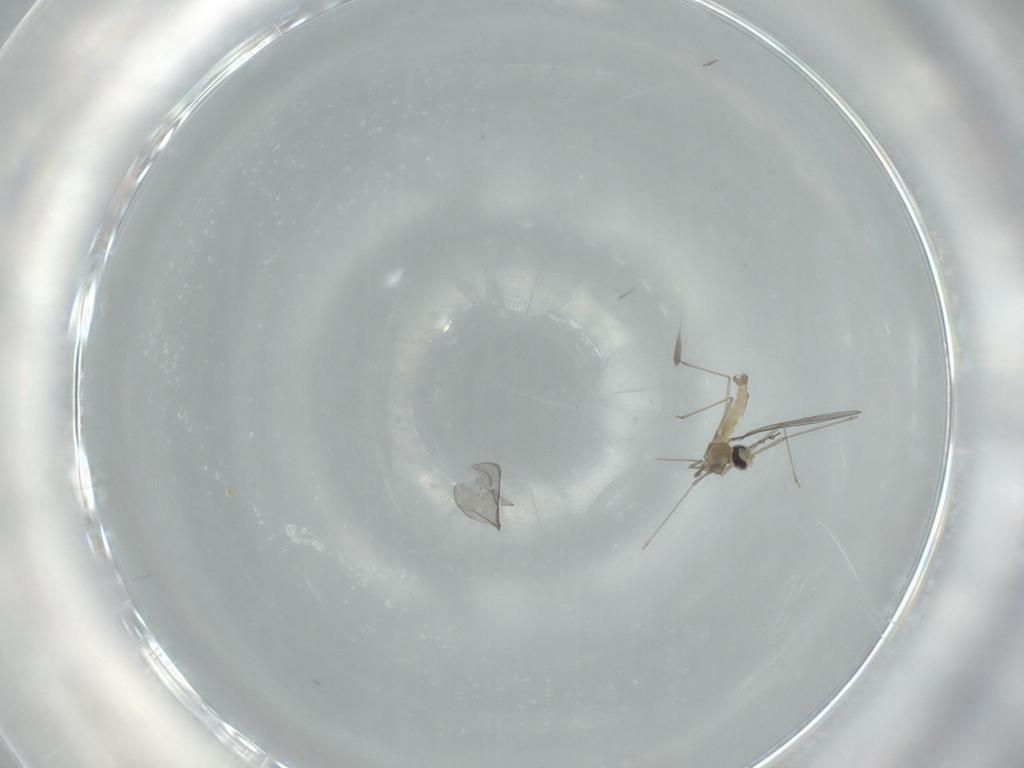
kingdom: Animalia
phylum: Arthropoda
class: Insecta
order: Diptera
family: Cecidomyiidae
